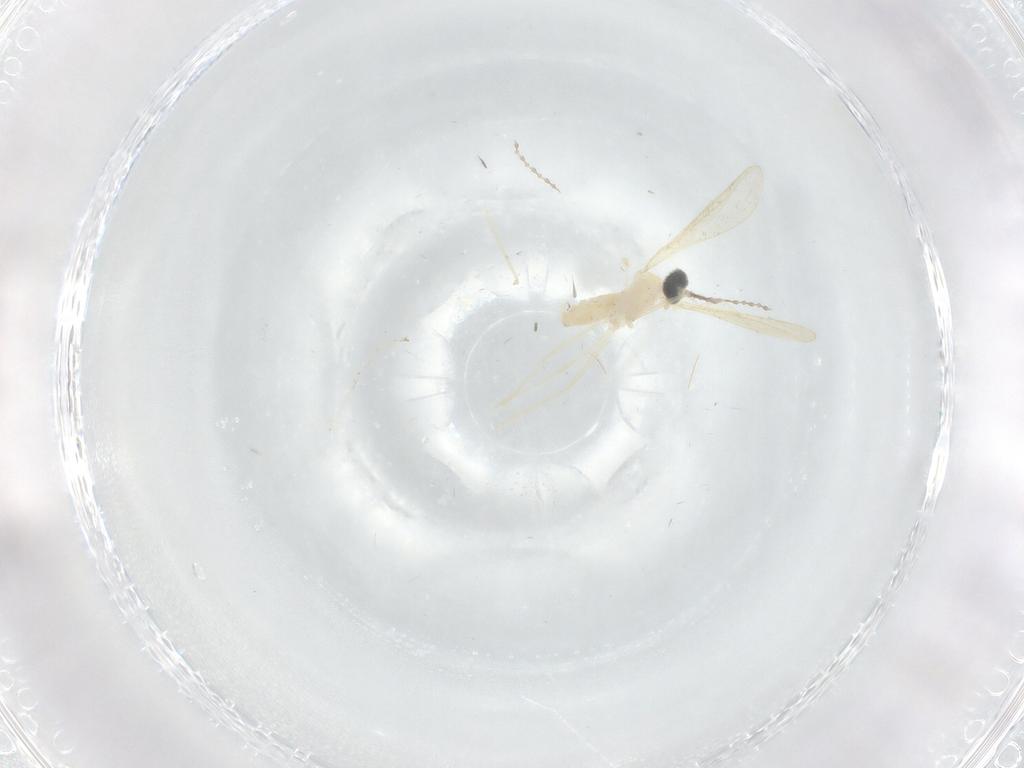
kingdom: Animalia
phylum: Arthropoda
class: Insecta
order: Diptera
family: Cecidomyiidae
